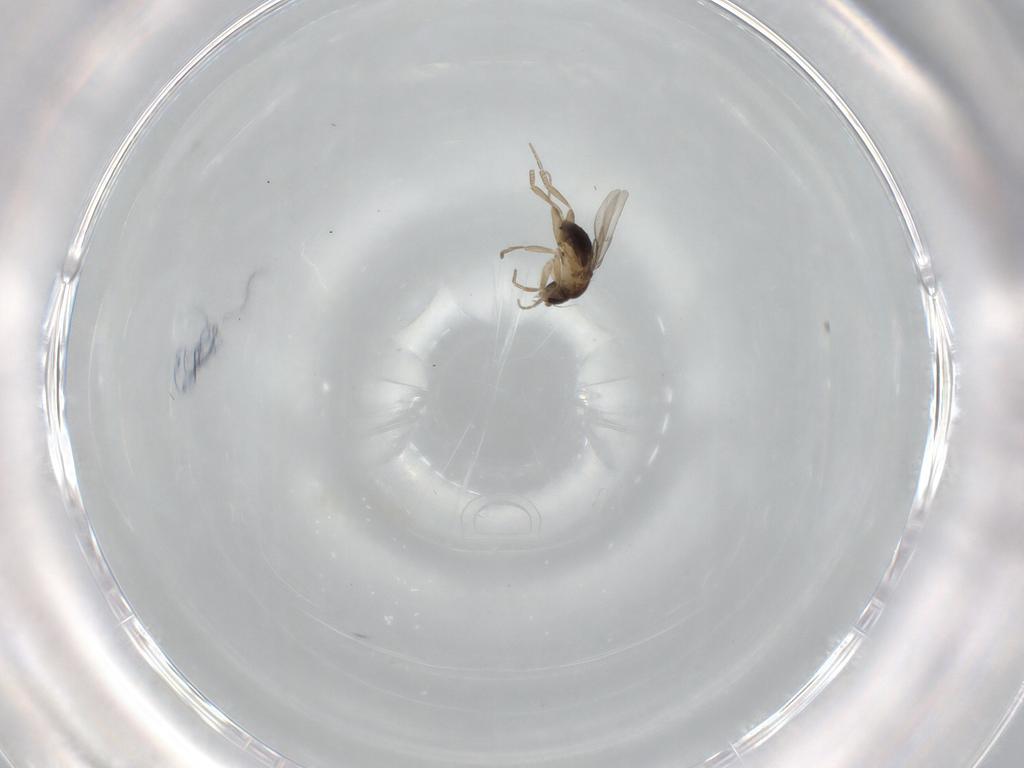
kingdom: Animalia
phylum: Arthropoda
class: Insecta
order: Diptera
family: Phoridae
